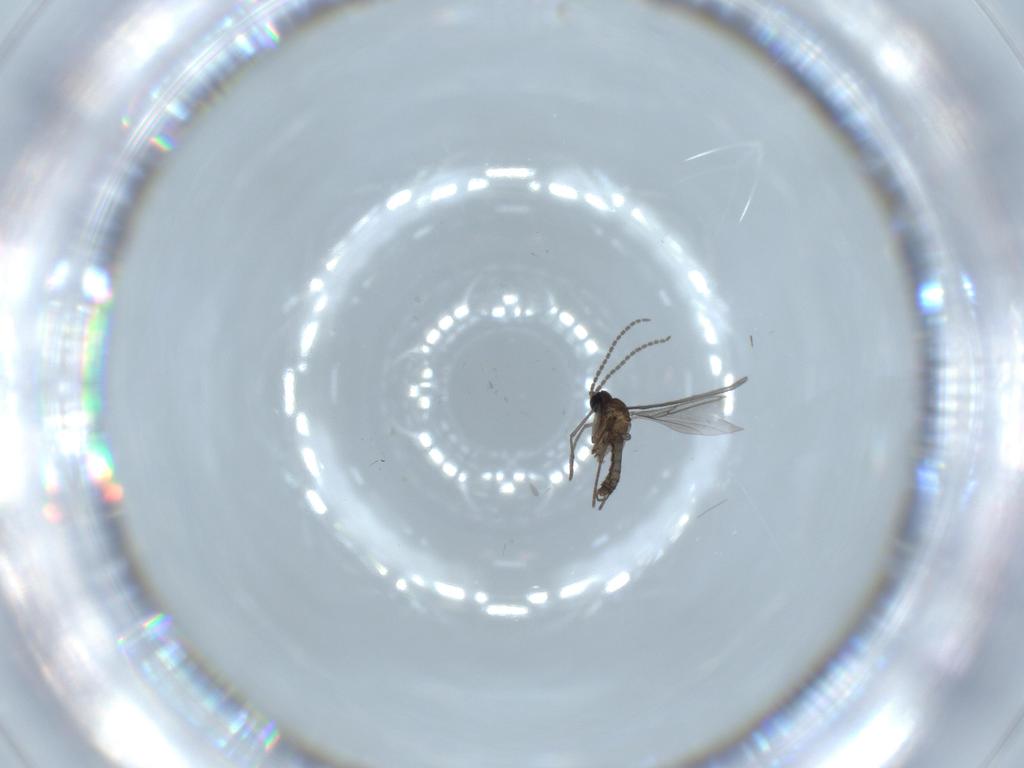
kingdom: Animalia
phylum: Arthropoda
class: Insecta
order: Diptera
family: Sciaridae
